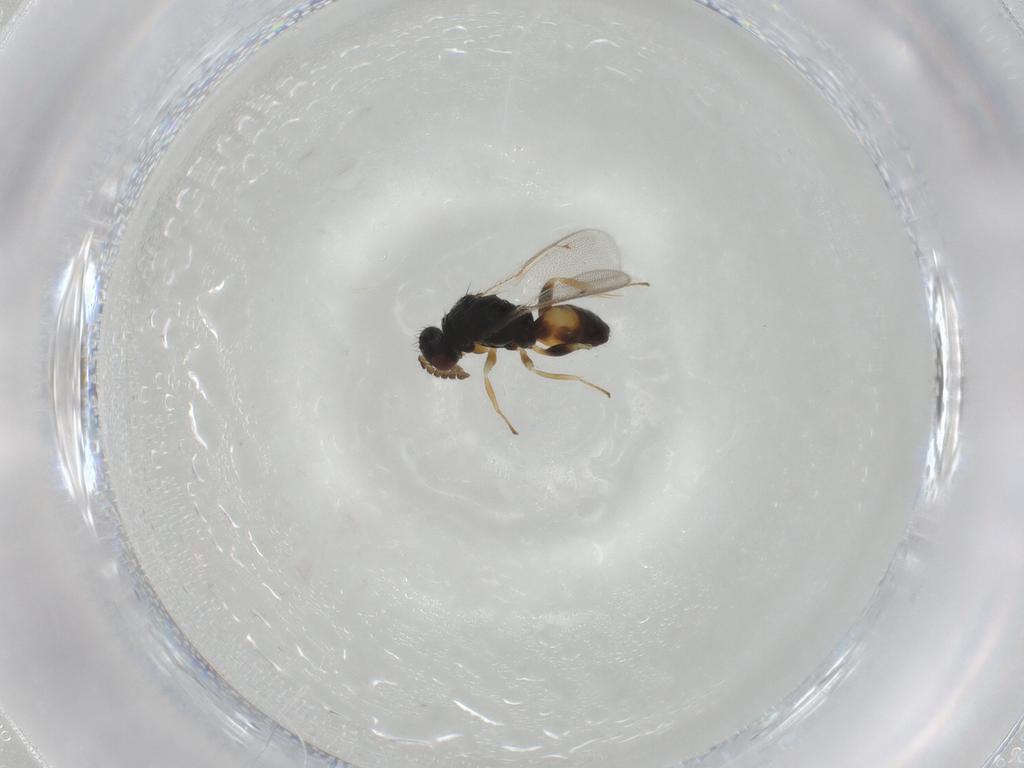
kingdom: Animalia
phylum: Arthropoda
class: Insecta
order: Hymenoptera
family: Eulophidae
